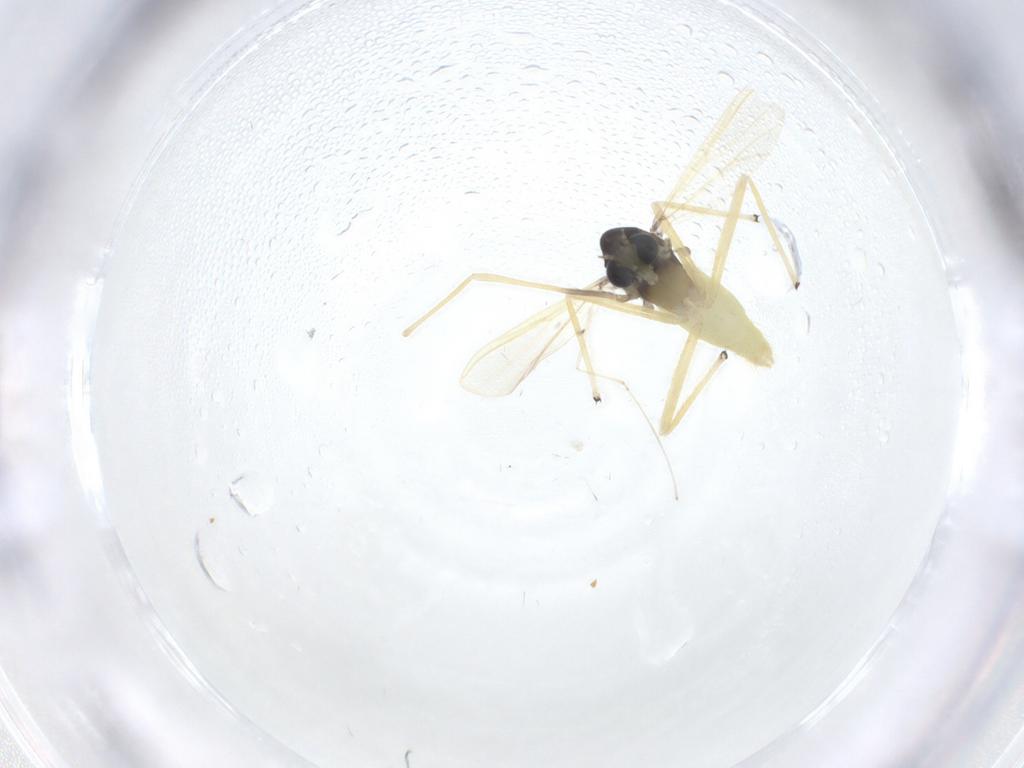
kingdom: Animalia
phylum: Arthropoda
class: Insecta
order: Diptera
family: Chironomidae
